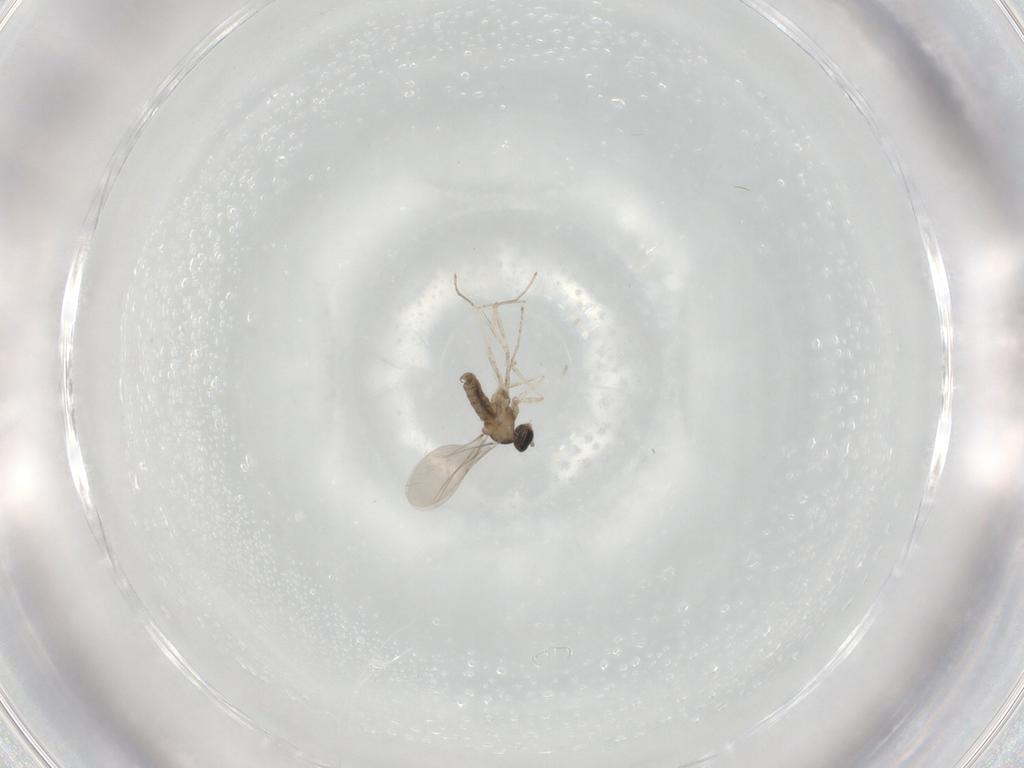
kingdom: Animalia
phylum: Arthropoda
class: Insecta
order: Diptera
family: Cecidomyiidae
